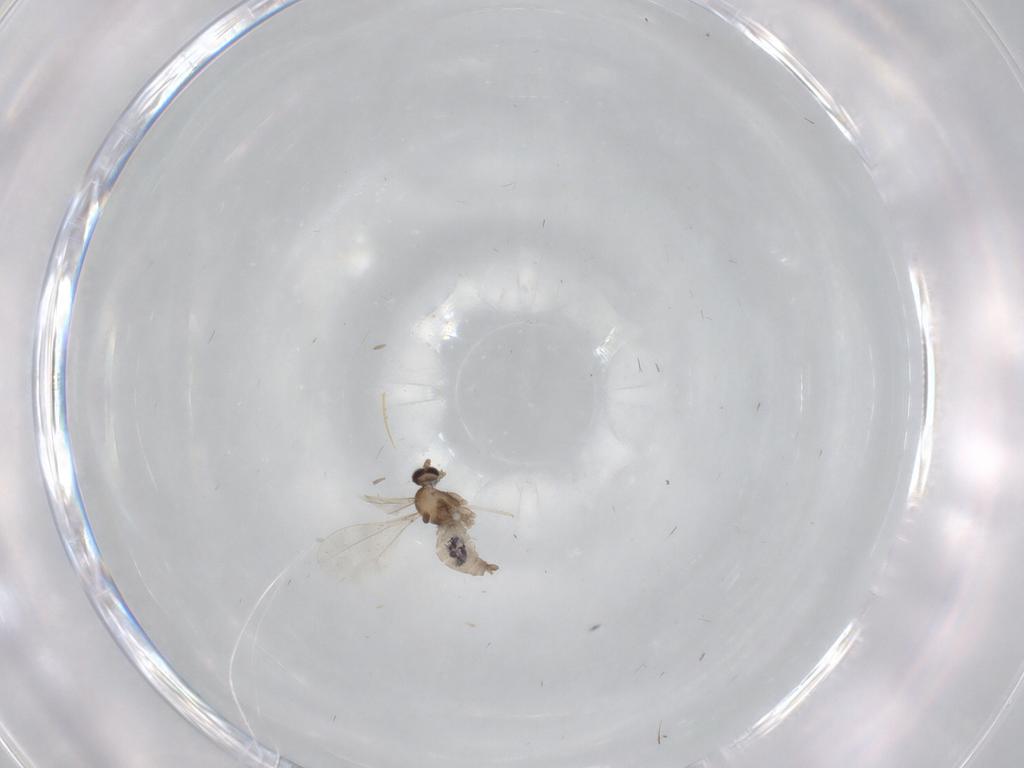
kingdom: Animalia
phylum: Arthropoda
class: Insecta
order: Diptera
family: Cecidomyiidae
